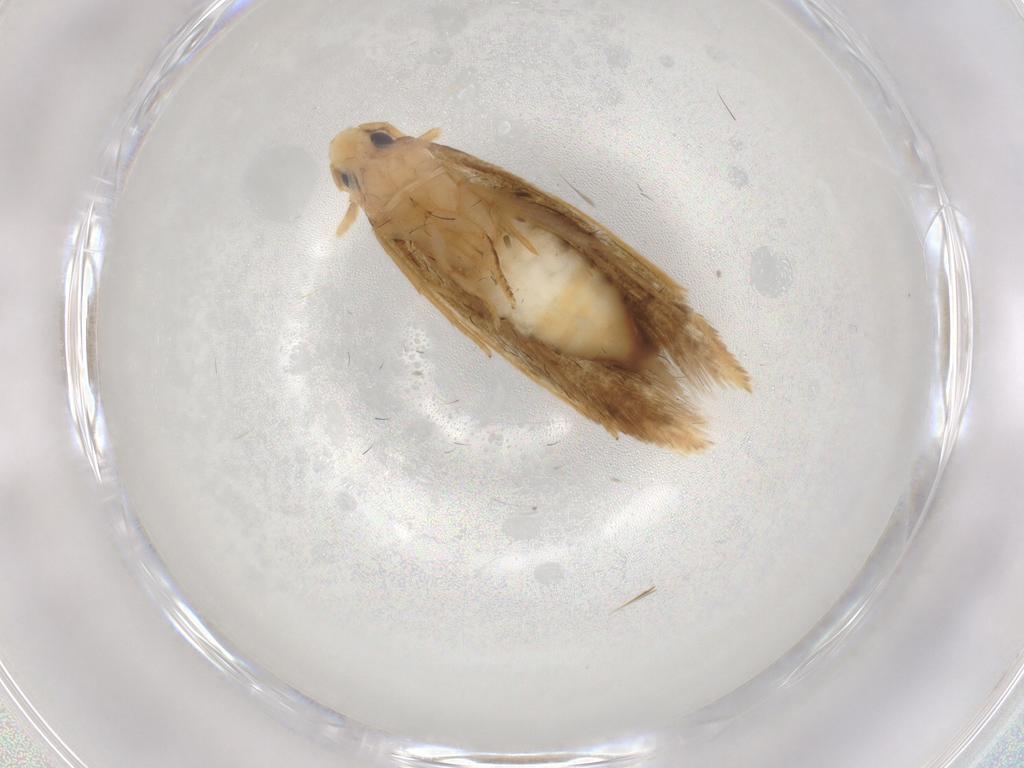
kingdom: Animalia
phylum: Arthropoda
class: Insecta
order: Lepidoptera
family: Tineidae
